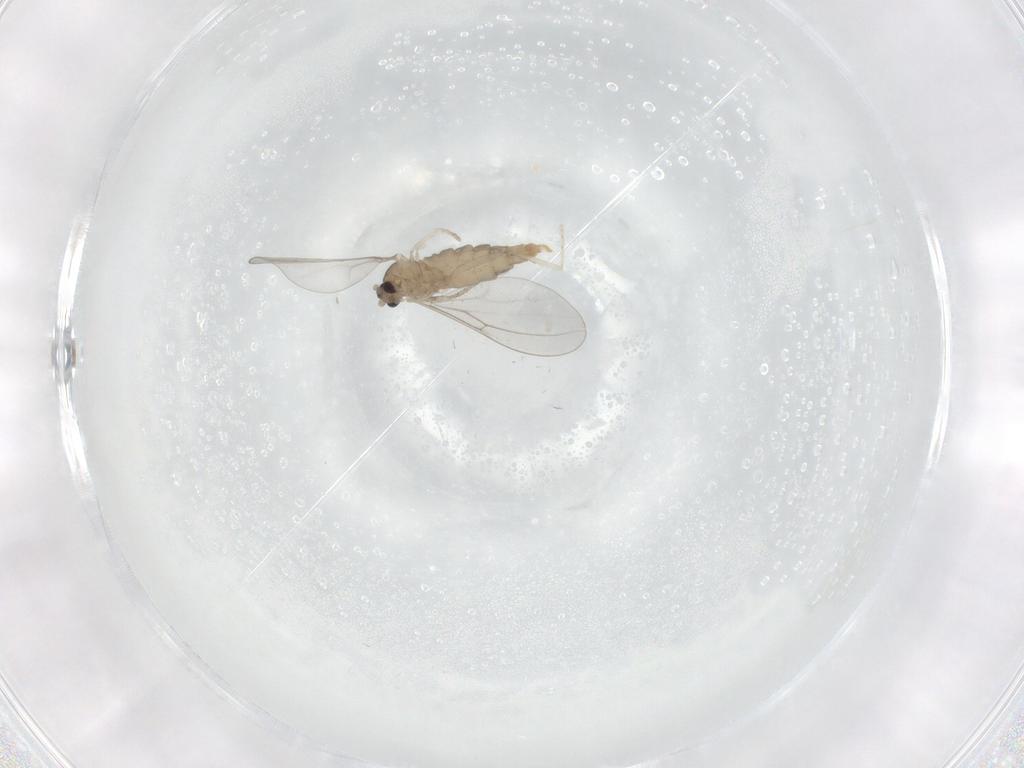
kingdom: Animalia
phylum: Arthropoda
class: Insecta
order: Diptera
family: Cecidomyiidae
